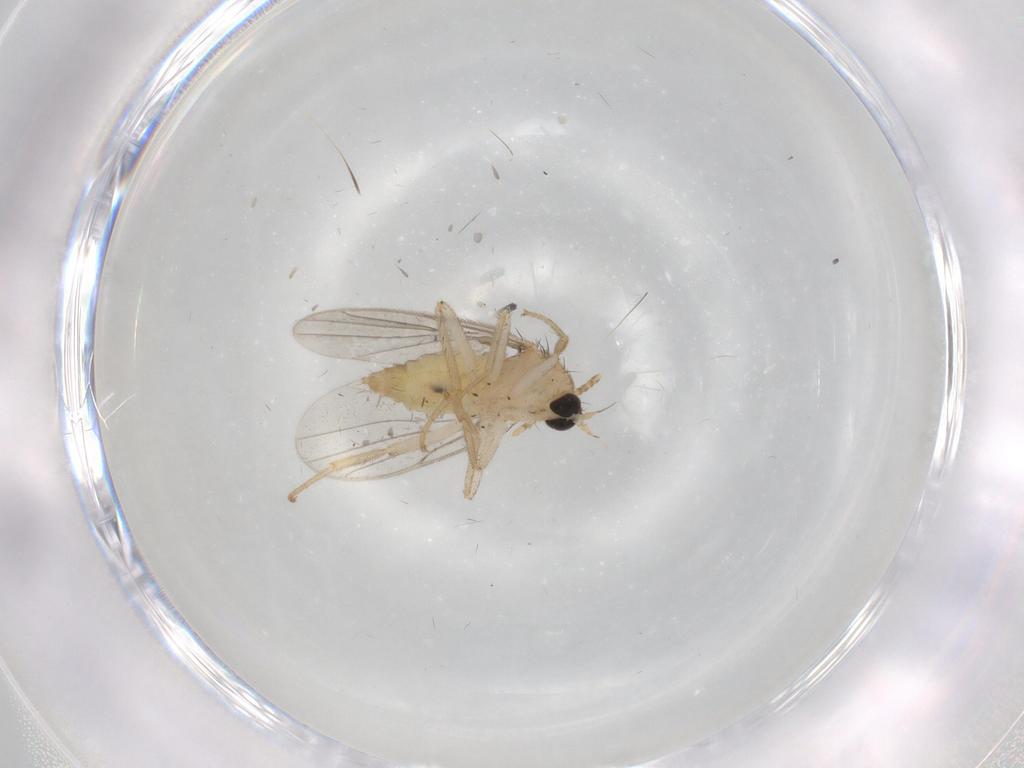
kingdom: Animalia
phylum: Arthropoda
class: Insecta
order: Diptera
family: Hybotidae
